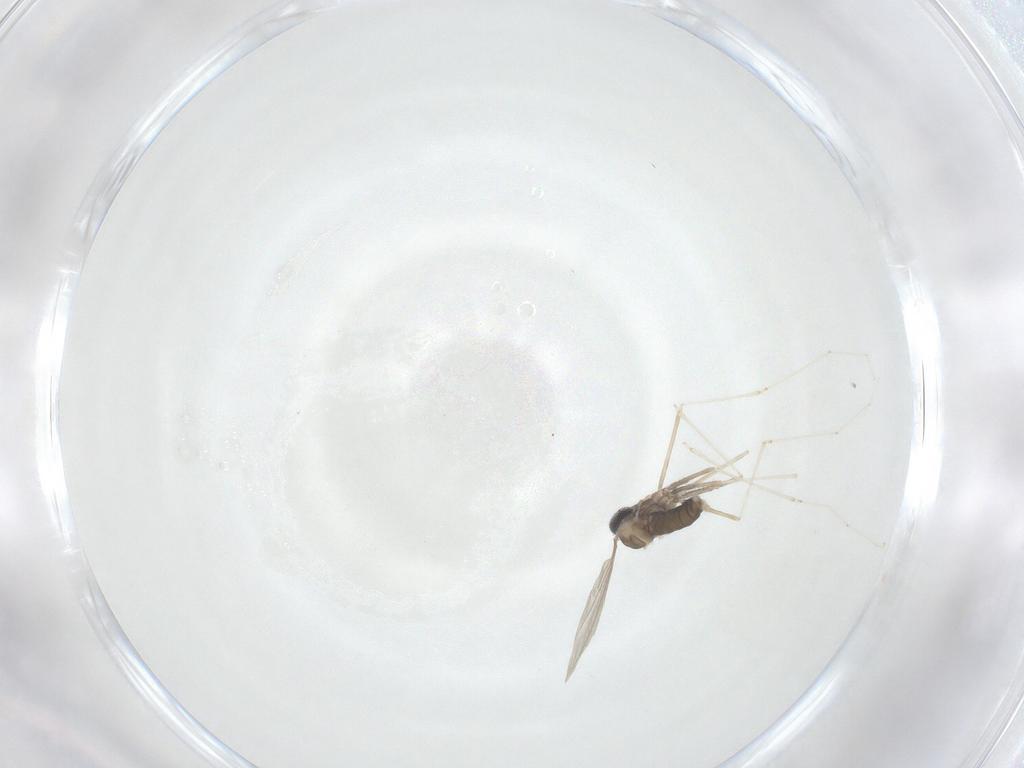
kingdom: Animalia
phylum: Arthropoda
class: Insecta
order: Diptera
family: Cecidomyiidae
